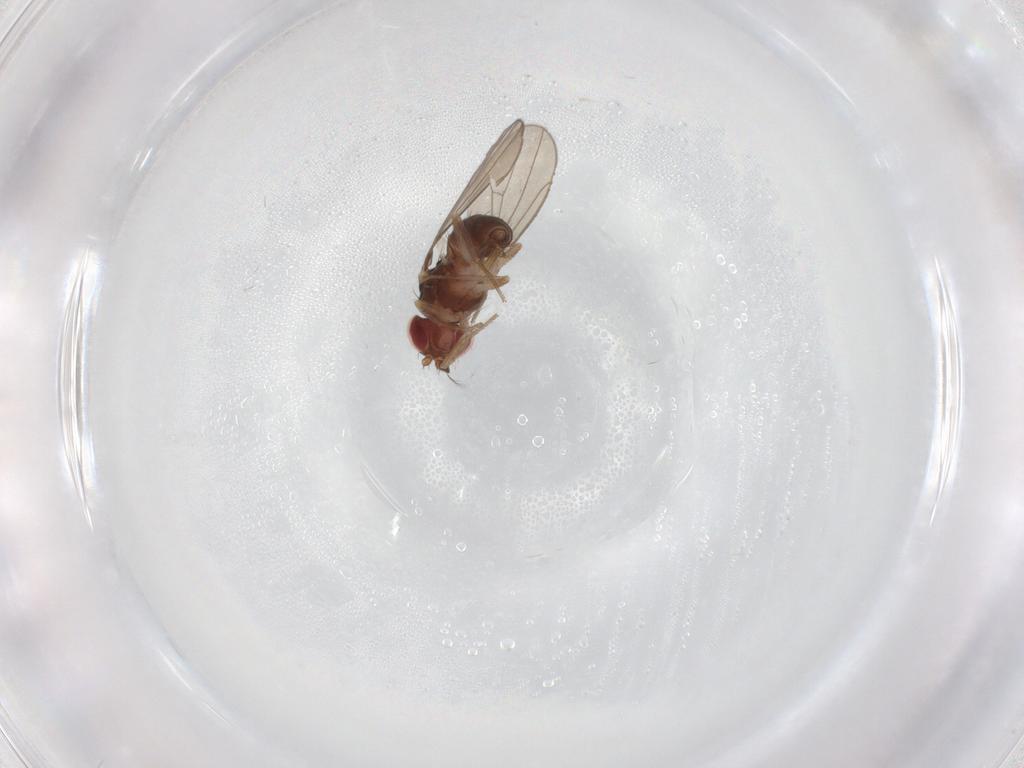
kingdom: Animalia
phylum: Arthropoda
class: Insecta
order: Diptera
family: Drosophilidae
